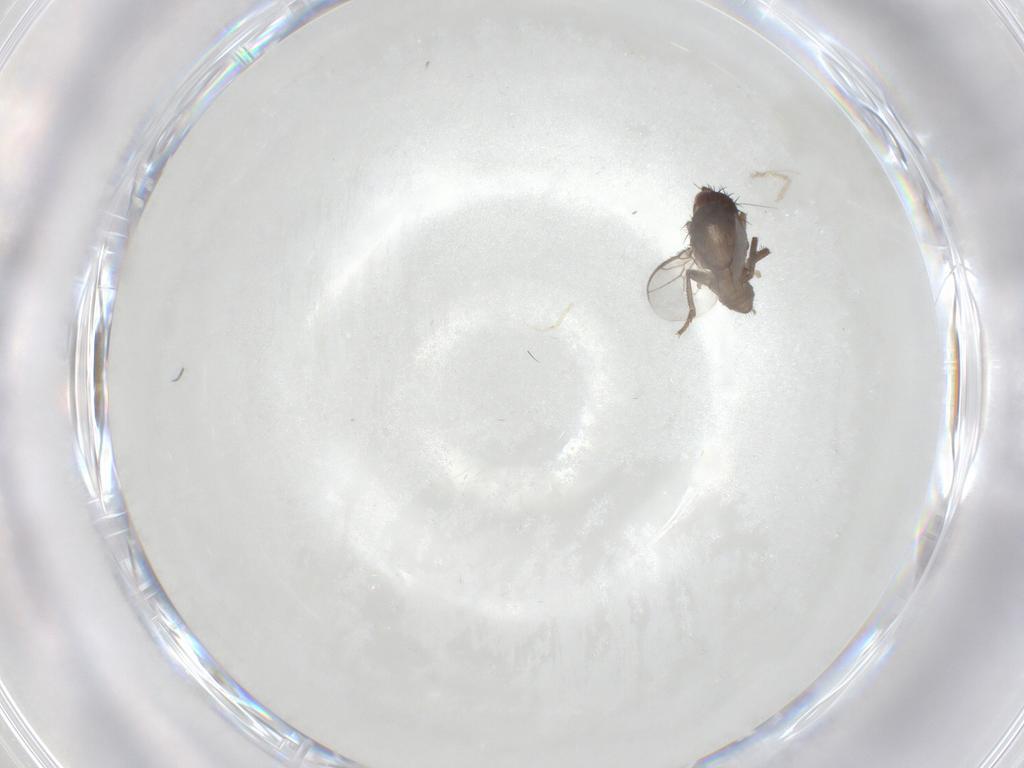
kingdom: Animalia
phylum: Arthropoda
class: Insecta
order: Diptera
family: Sphaeroceridae
